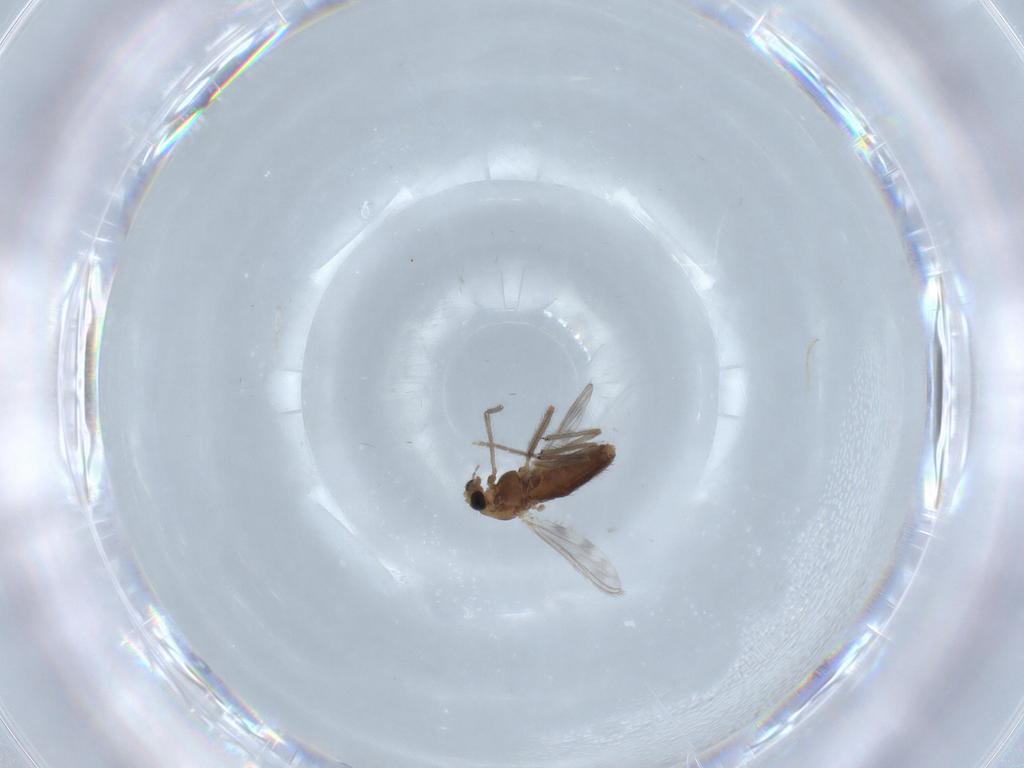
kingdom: Animalia
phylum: Arthropoda
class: Insecta
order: Diptera
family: Chironomidae
